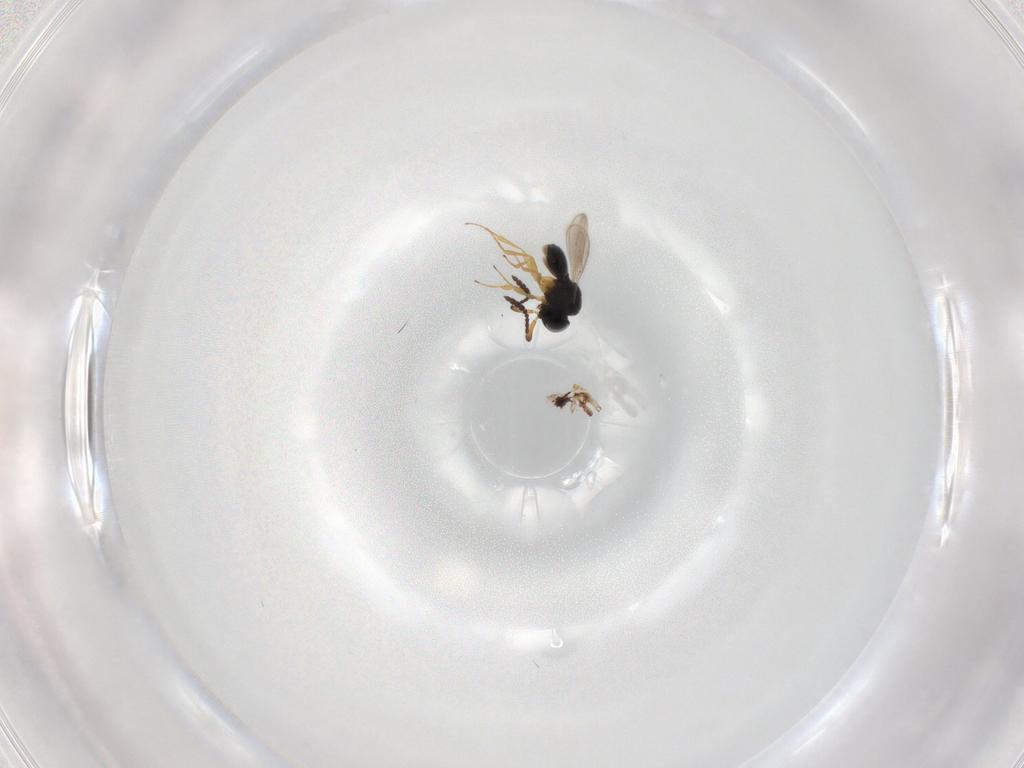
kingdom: Animalia
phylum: Arthropoda
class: Insecta
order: Hymenoptera
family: Scelionidae
